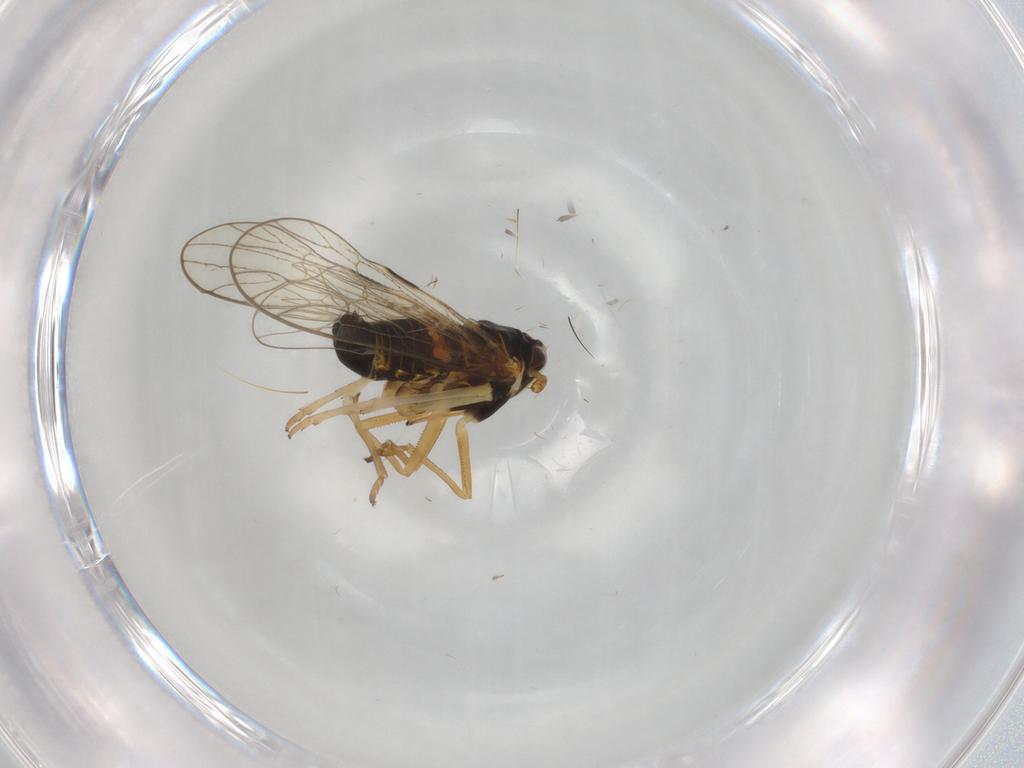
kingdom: Animalia
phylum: Arthropoda
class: Insecta
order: Hemiptera
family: Cicadellidae
